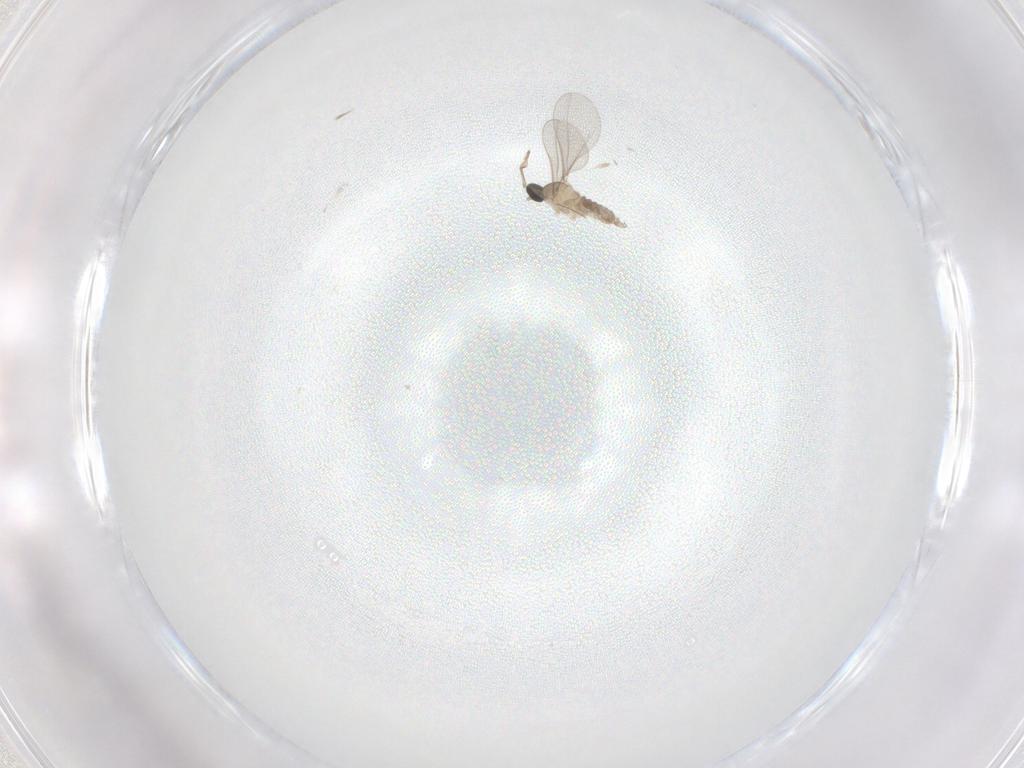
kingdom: Animalia
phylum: Arthropoda
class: Insecta
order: Diptera
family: Cecidomyiidae
